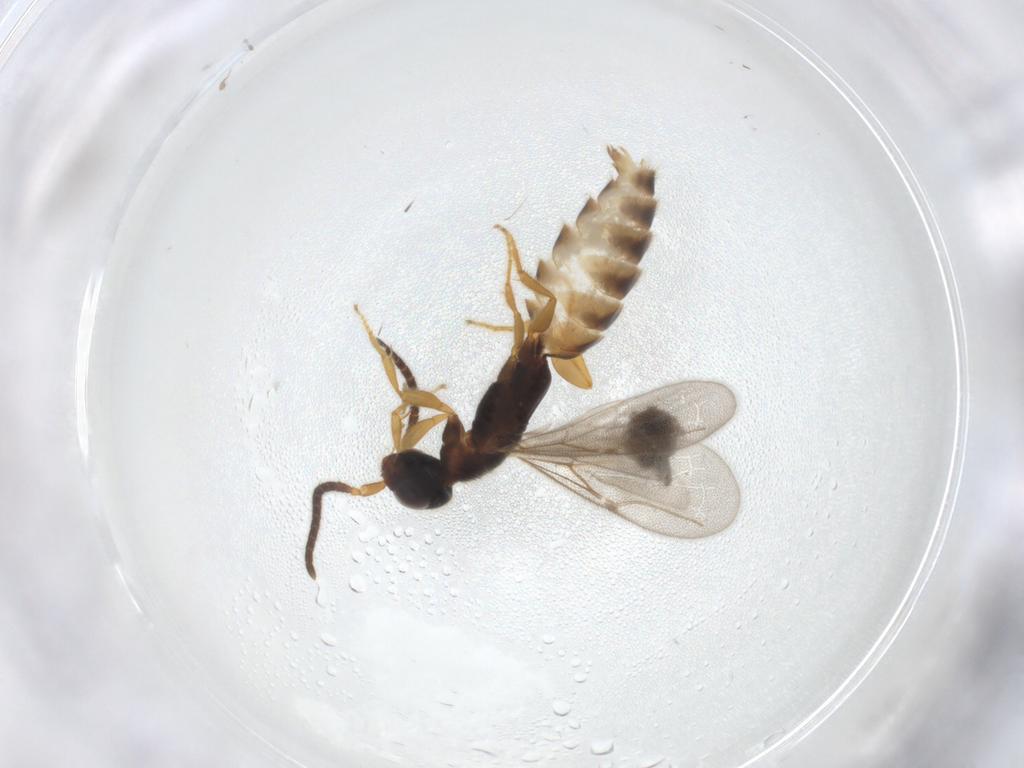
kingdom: Animalia
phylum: Arthropoda
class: Insecta
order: Hymenoptera
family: Bethylidae
